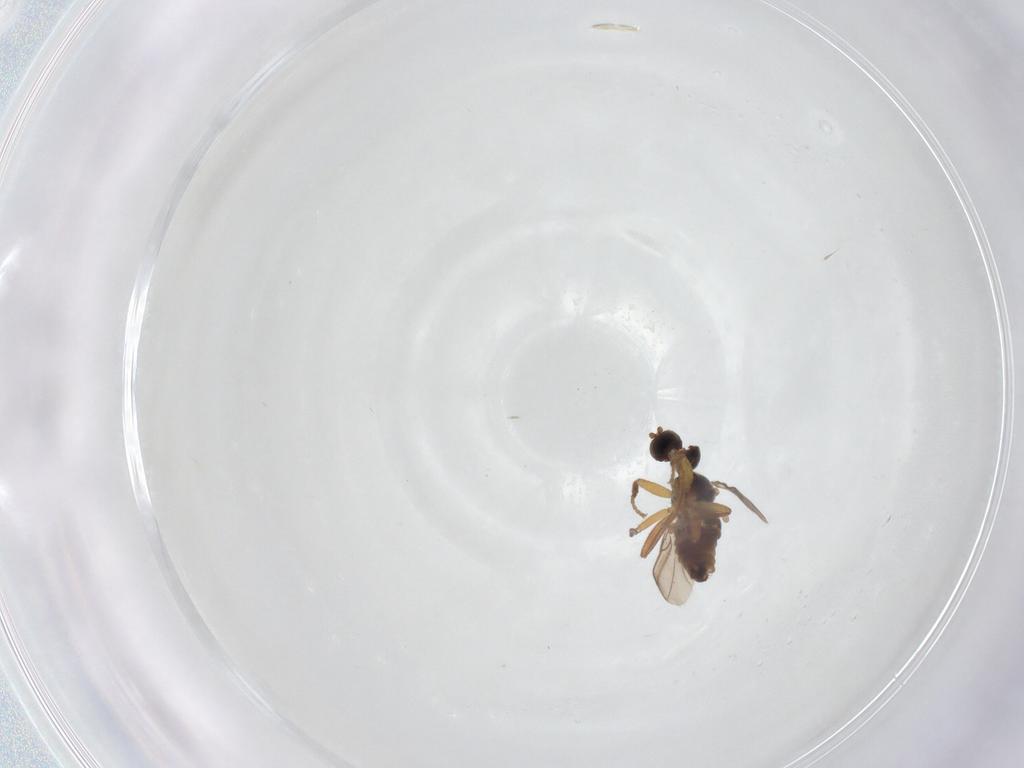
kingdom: Animalia
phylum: Arthropoda
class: Insecta
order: Diptera
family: Hybotidae
